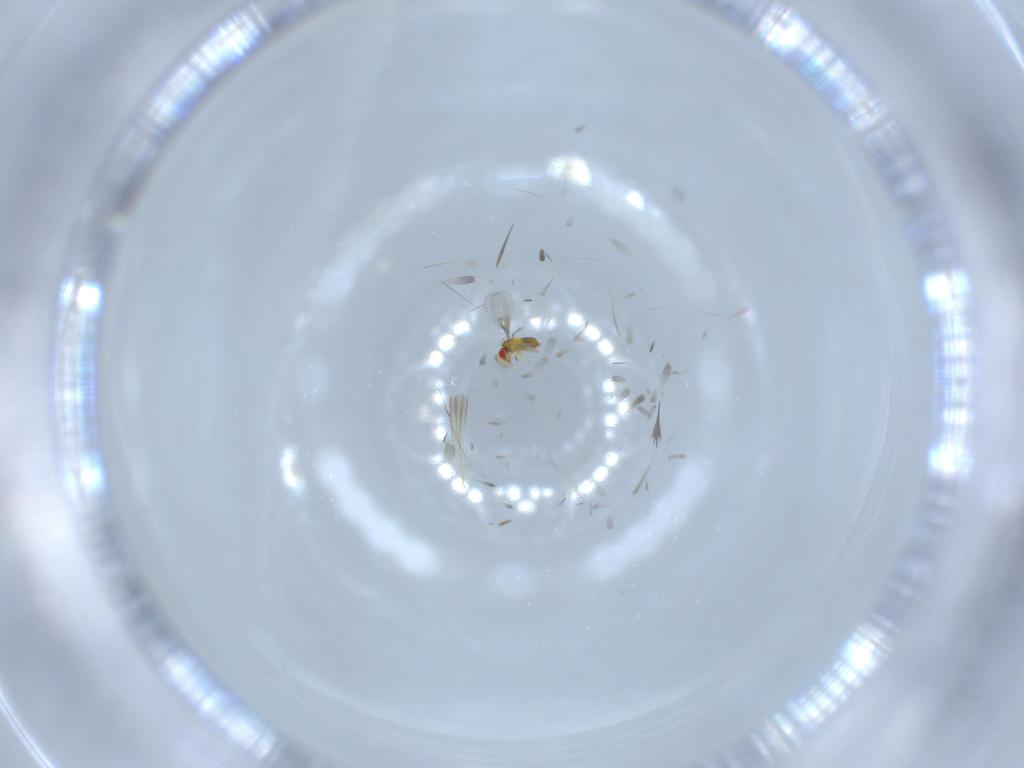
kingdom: Animalia
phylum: Arthropoda
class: Insecta
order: Hymenoptera
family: Trichogrammatidae
